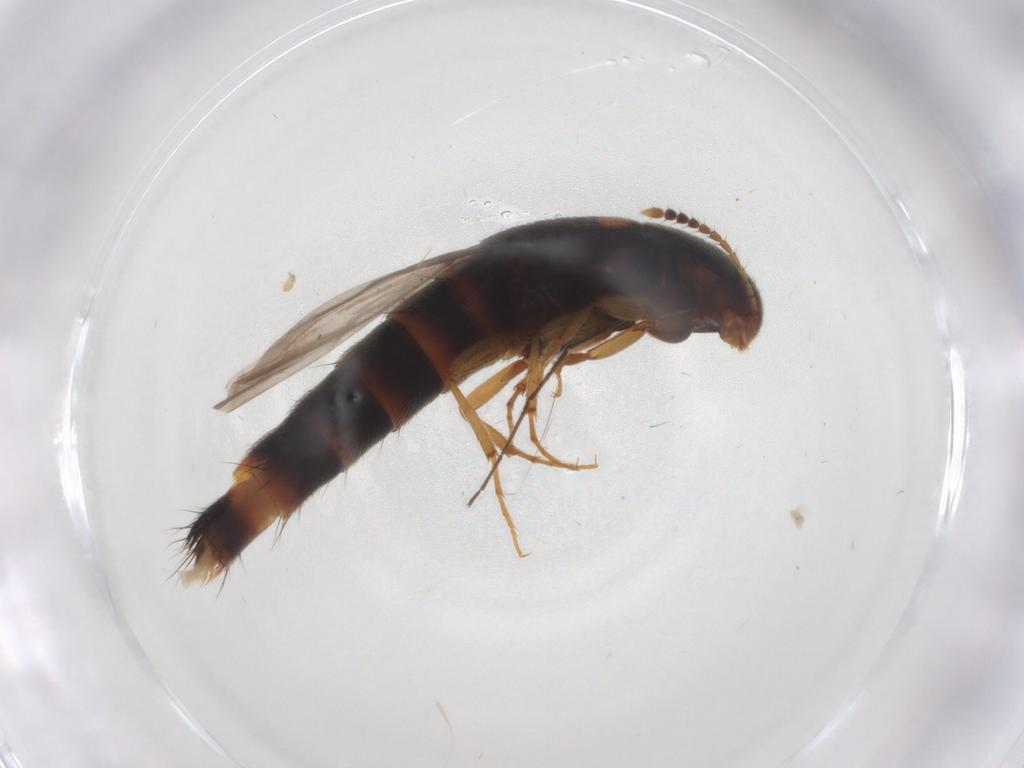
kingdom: Animalia
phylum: Arthropoda
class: Insecta
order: Coleoptera
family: Staphylinidae
